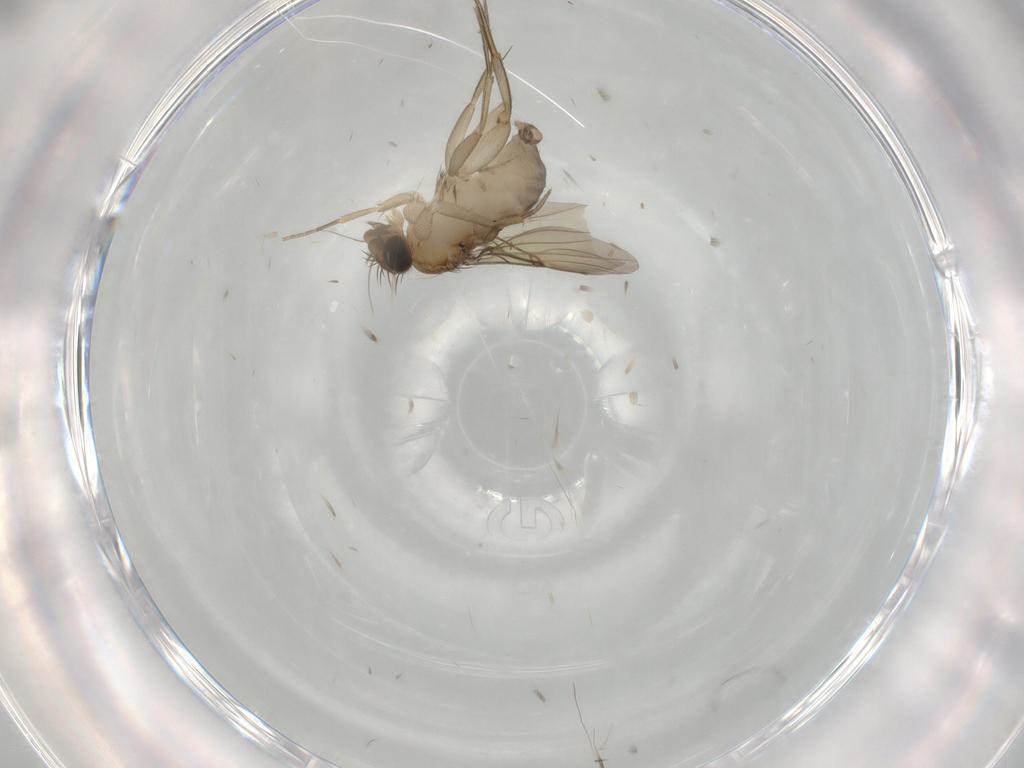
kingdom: Animalia
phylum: Arthropoda
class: Insecta
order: Diptera
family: Phoridae
